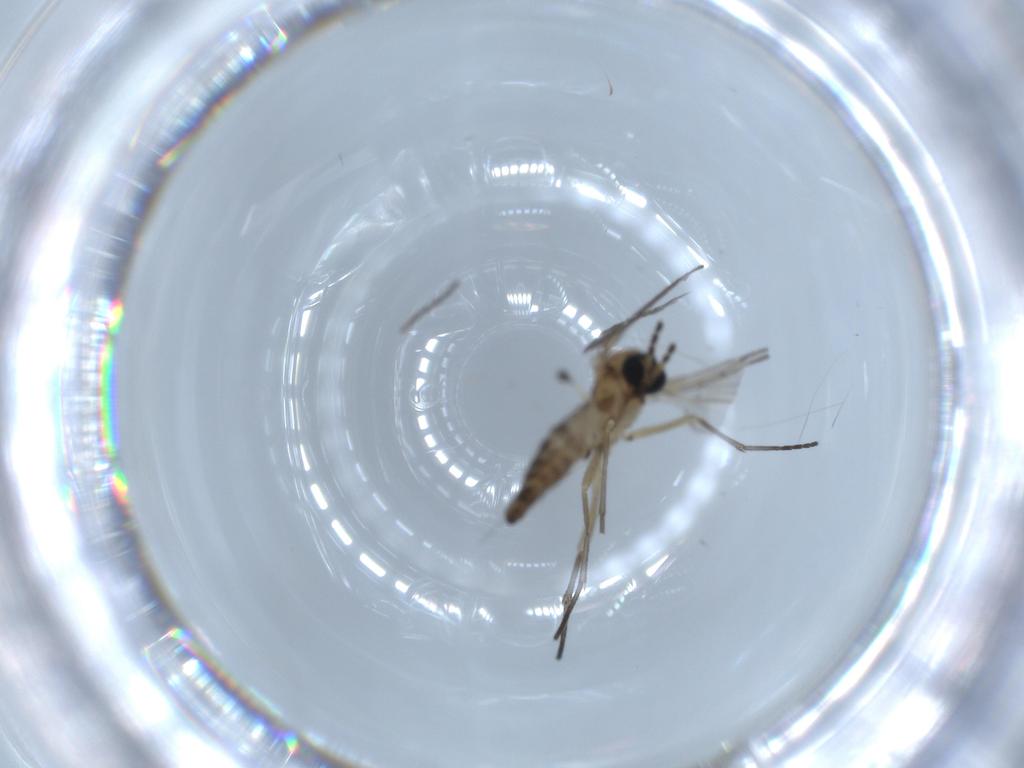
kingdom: Animalia
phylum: Arthropoda
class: Insecta
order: Diptera
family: Sciaridae
